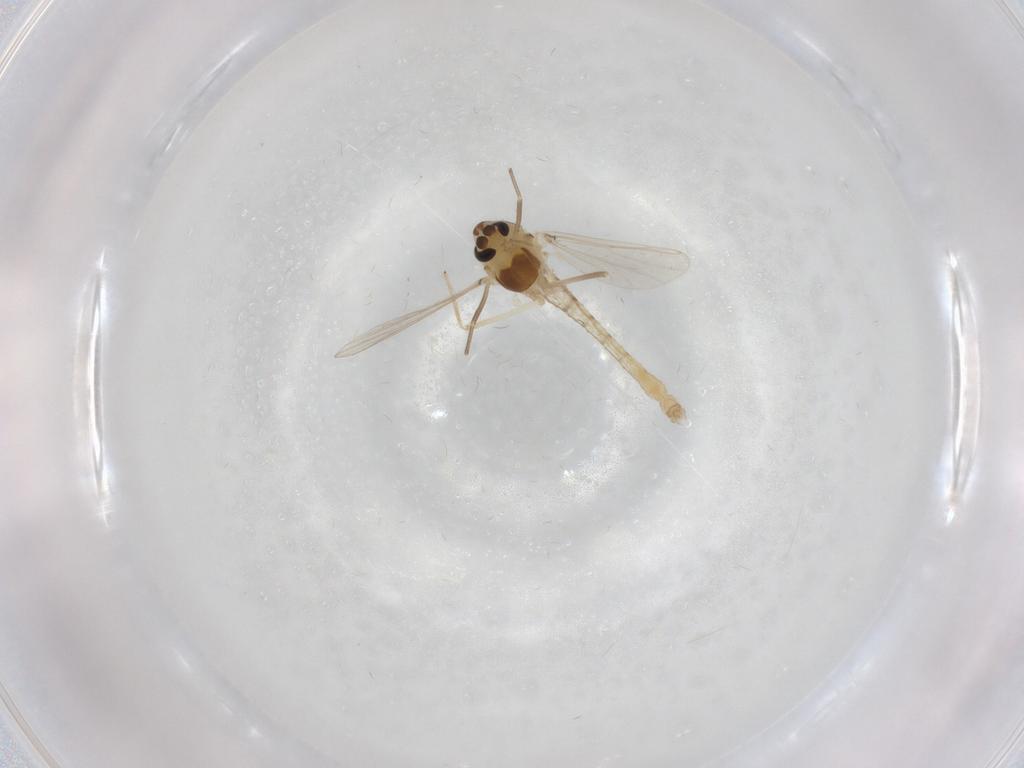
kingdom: Animalia
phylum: Arthropoda
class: Insecta
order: Diptera
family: Chironomidae
